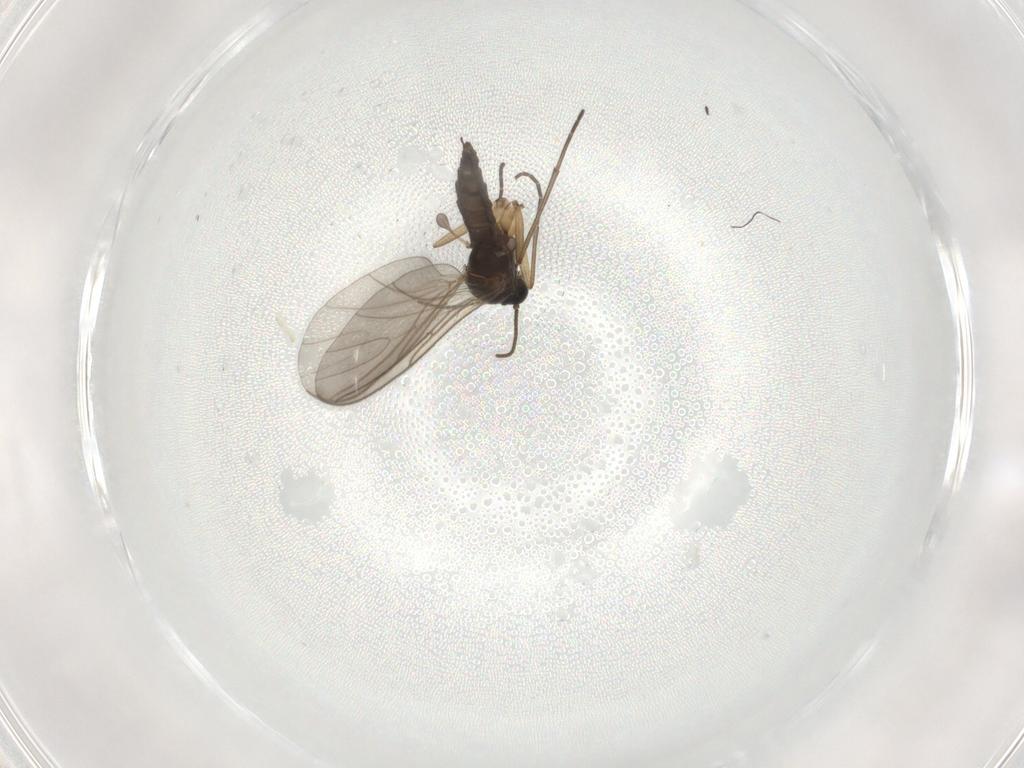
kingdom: Animalia
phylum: Arthropoda
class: Insecta
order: Diptera
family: Sciaridae
